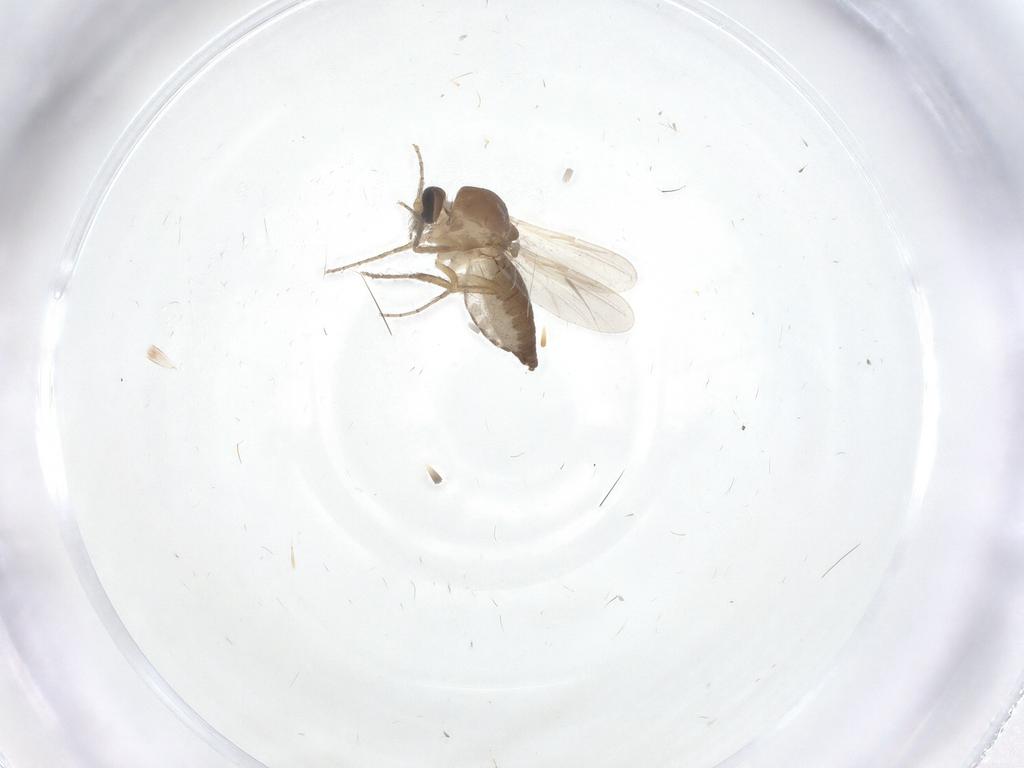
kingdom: Animalia
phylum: Arthropoda
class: Insecta
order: Diptera
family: Ceratopogonidae
